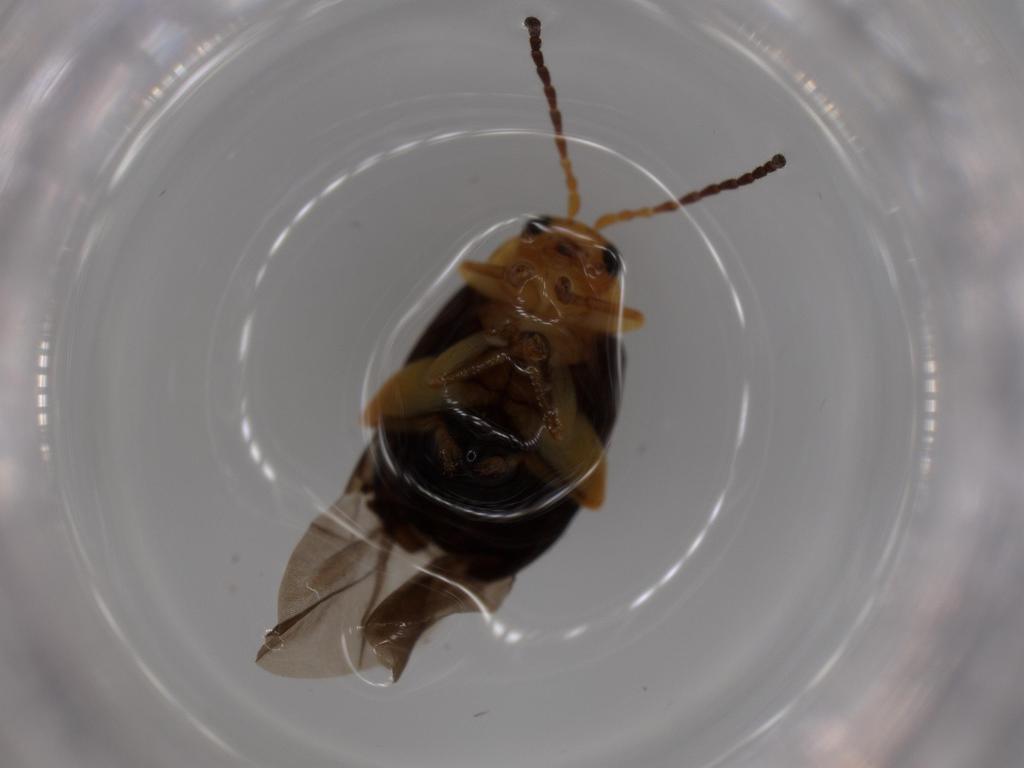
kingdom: Animalia
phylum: Arthropoda
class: Insecta
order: Coleoptera
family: Chrysomelidae
